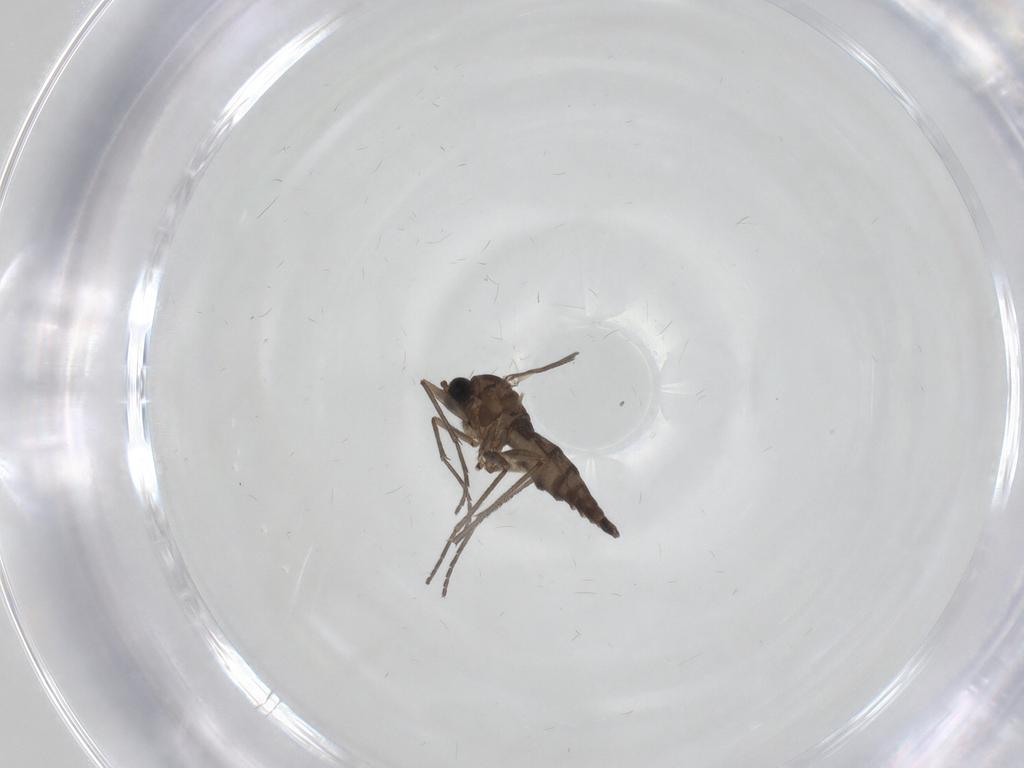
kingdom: Animalia
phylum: Arthropoda
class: Insecta
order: Diptera
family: Sciaridae
